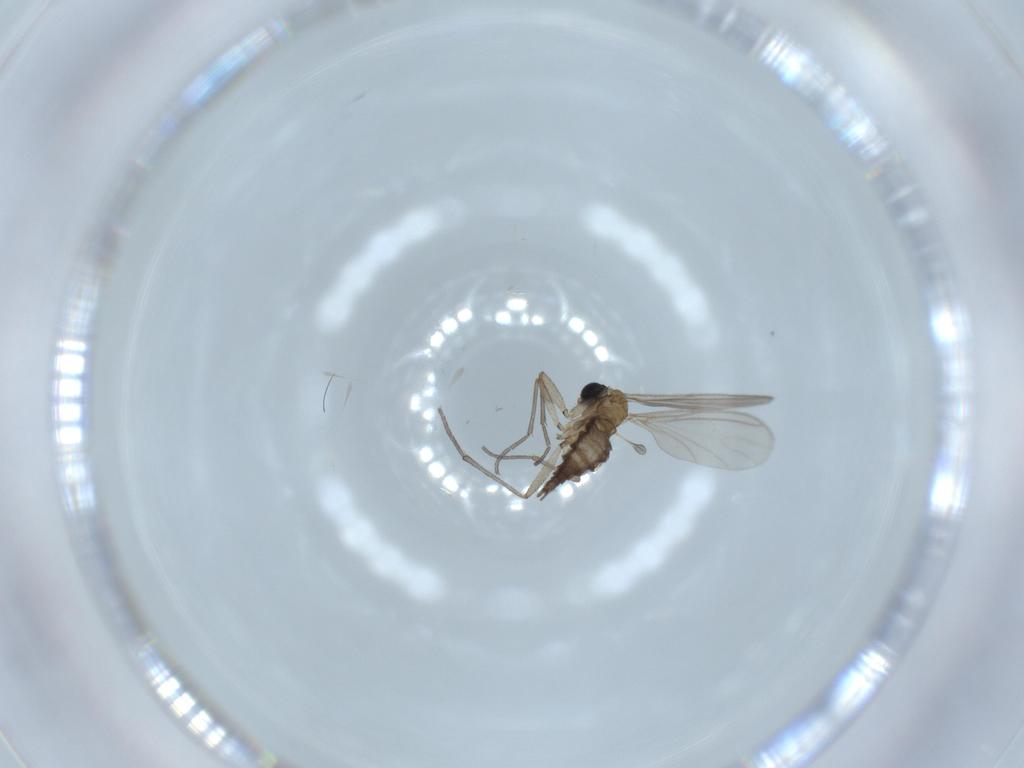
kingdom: Animalia
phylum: Arthropoda
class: Insecta
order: Diptera
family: Sciaridae
